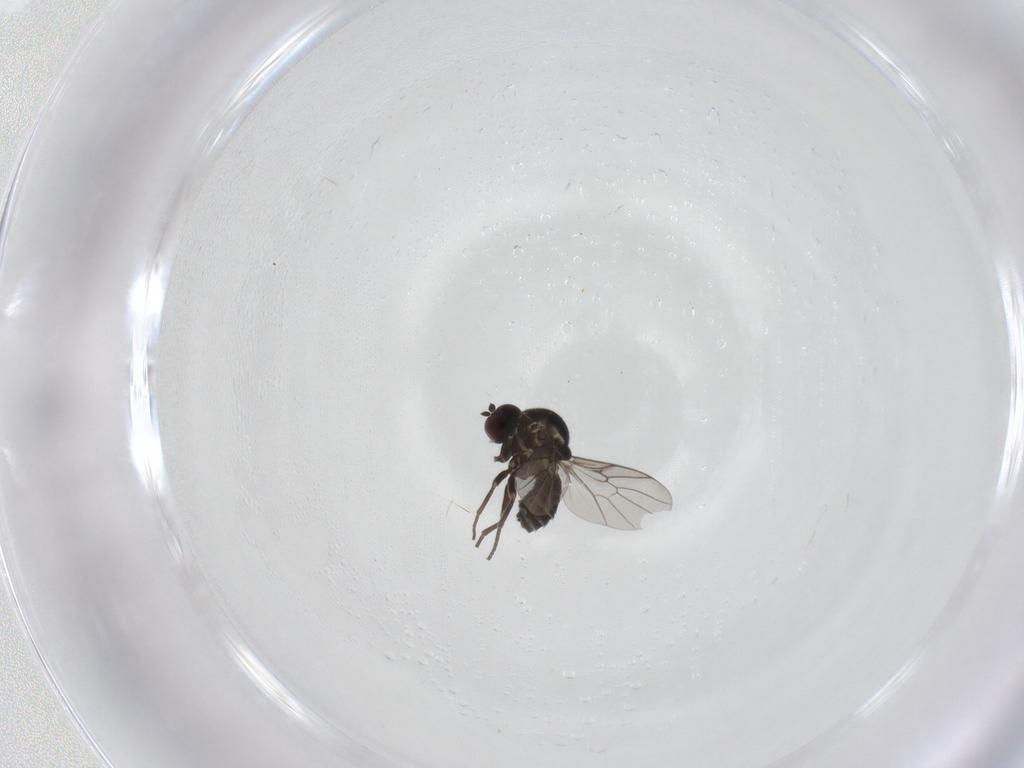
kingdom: Animalia
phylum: Arthropoda
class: Insecta
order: Diptera
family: Mythicomyiidae
